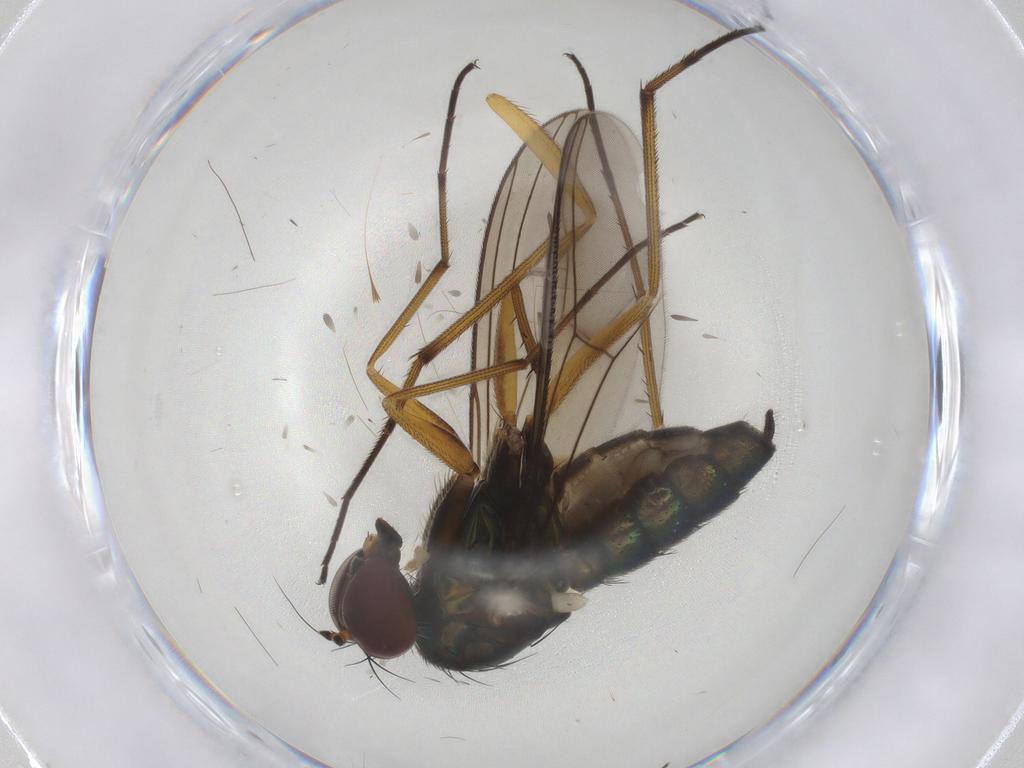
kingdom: Animalia
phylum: Arthropoda
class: Insecta
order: Diptera
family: Dolichopodidae
